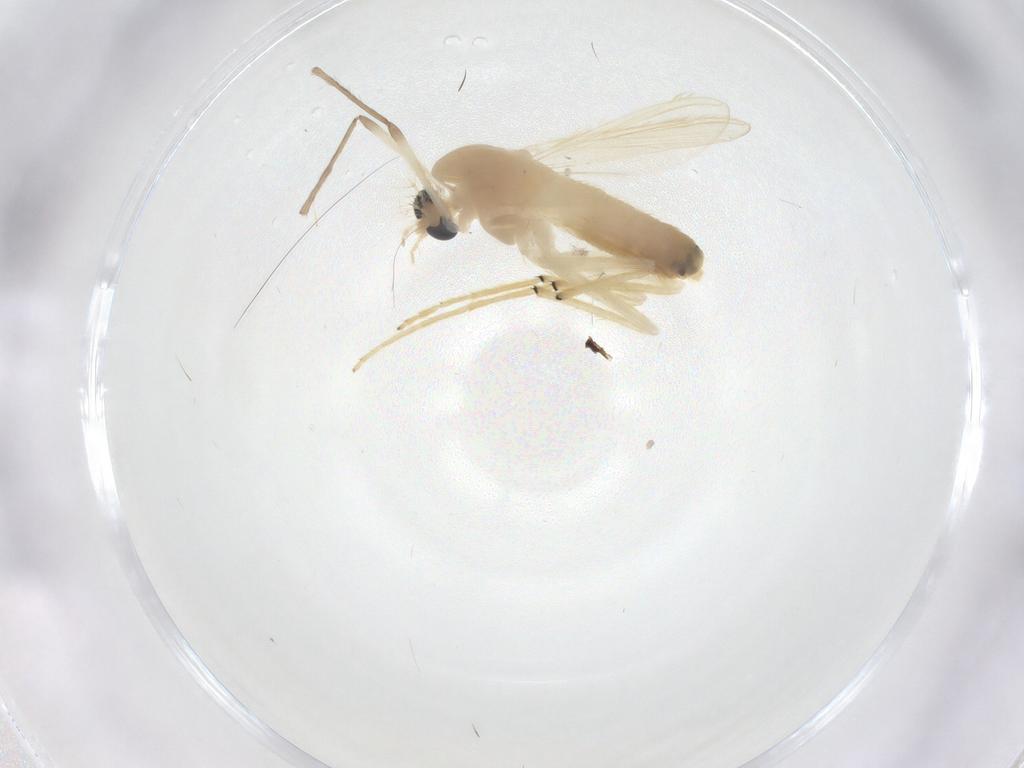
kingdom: Animalia
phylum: Arthropoda
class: Insecta
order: Diptera
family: Chironomidae
